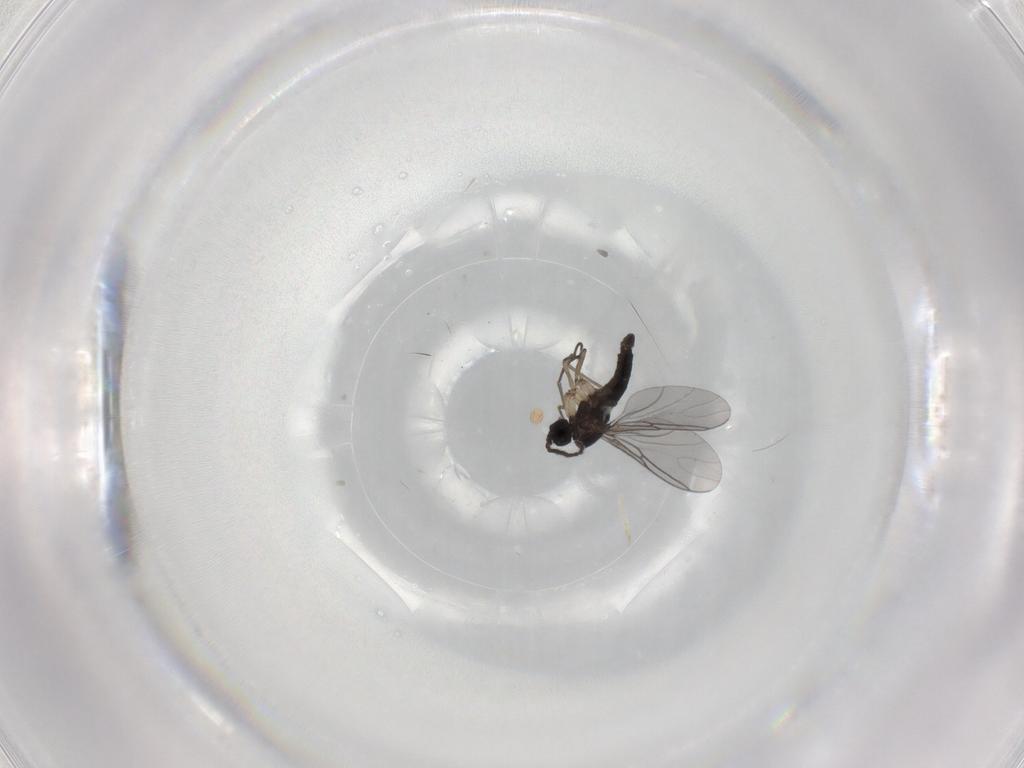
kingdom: Animalia
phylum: Arthropoda
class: Insecta
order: Diptera
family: Sciaridae
